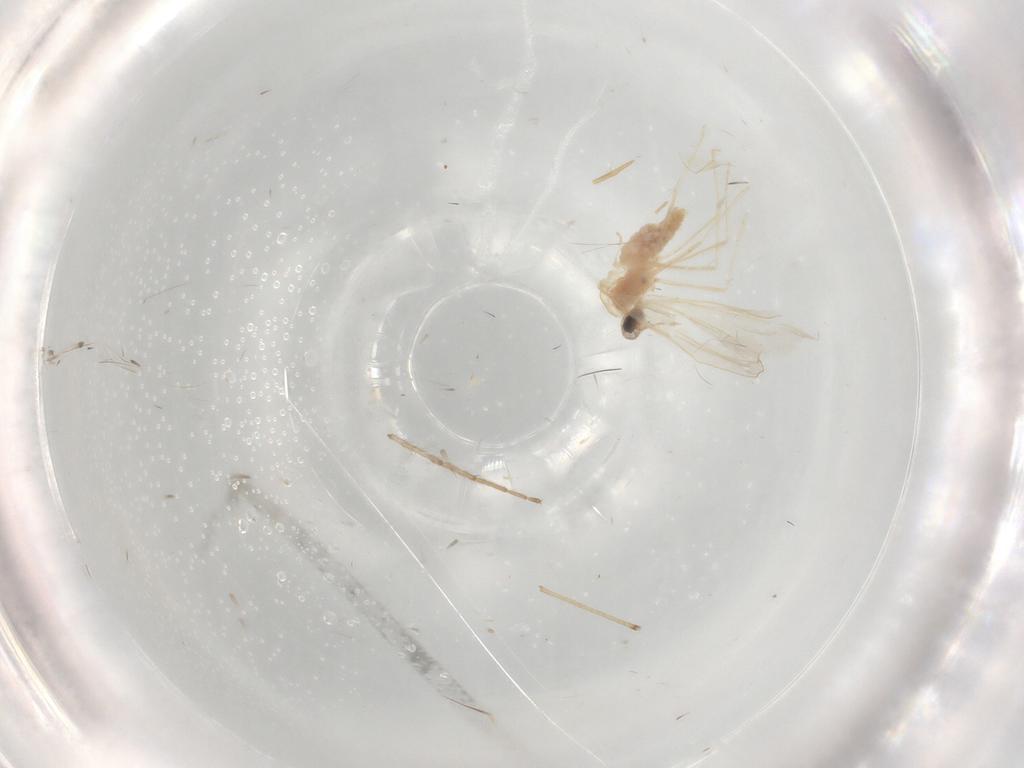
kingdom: Animalia
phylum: Arthropoda
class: Insecta
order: Diptera
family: Cecidomyiidae
